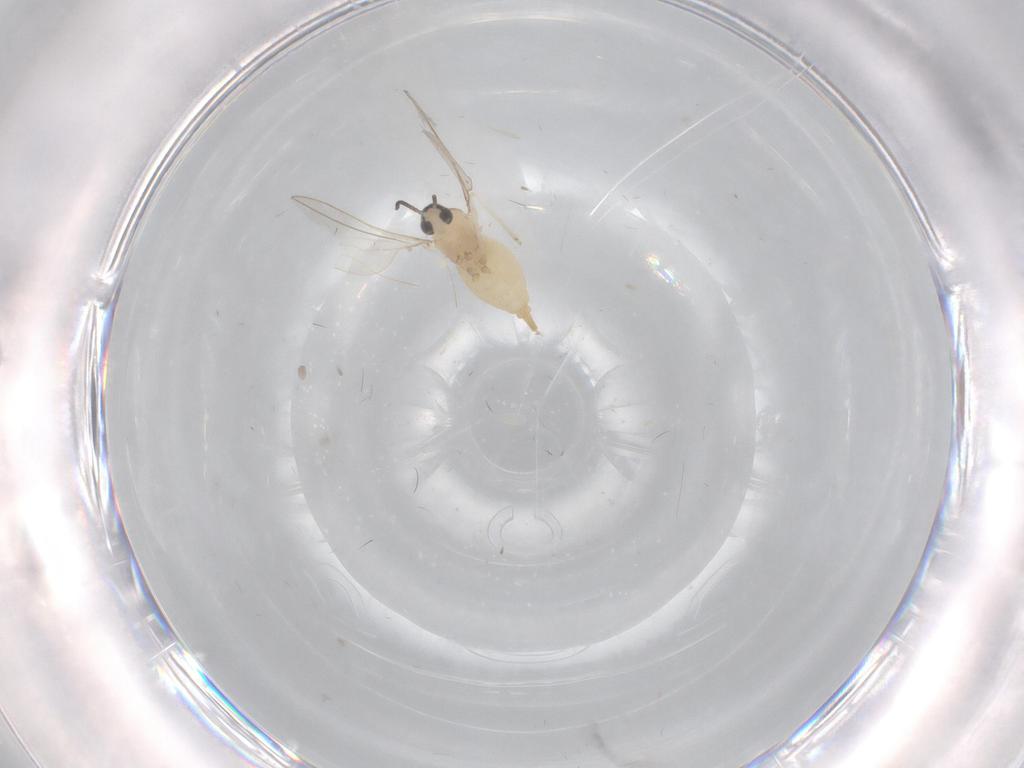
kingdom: Animalia
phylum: Arthropoda
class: Insecta
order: Diptera
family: Cecidomyiidae
